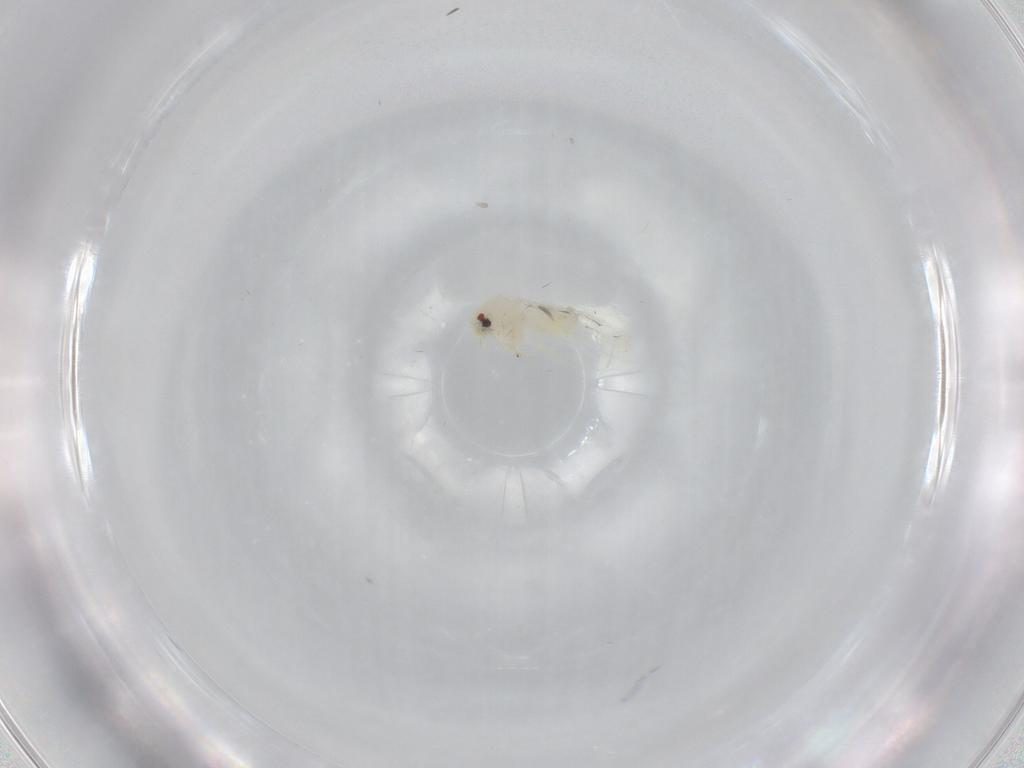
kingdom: Animalia
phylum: Arthropoda
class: Insecta
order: Hemiptera
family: Aleyrodidae
